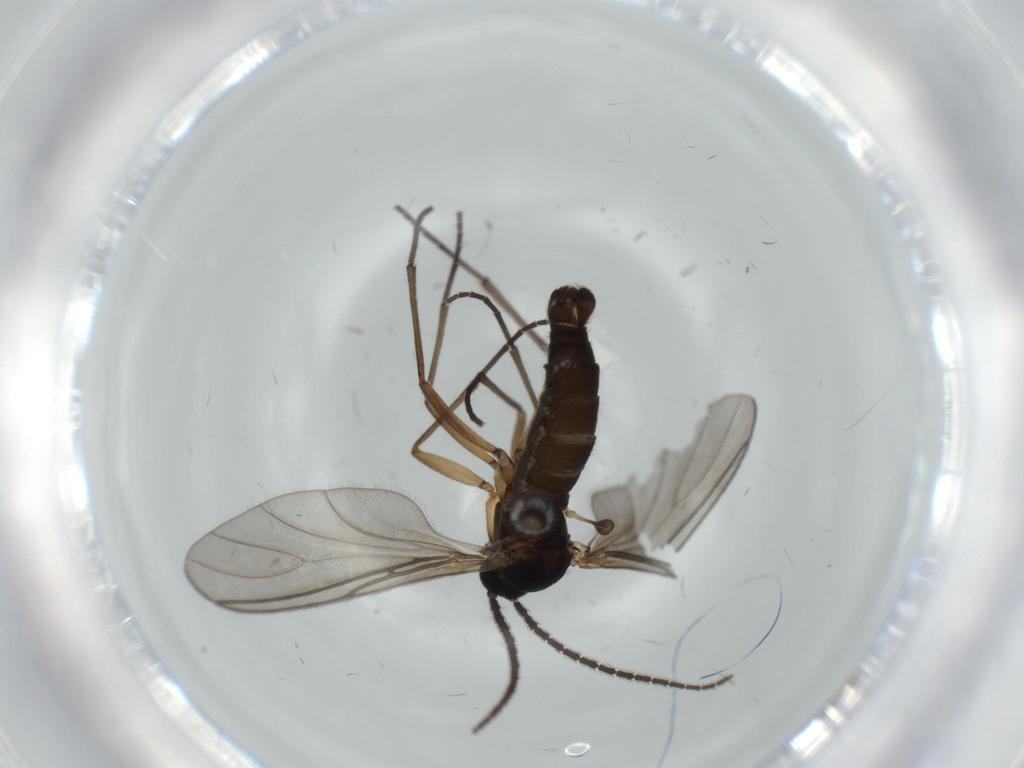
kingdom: Animalia
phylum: Arthropoda
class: Insecta
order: Diptera
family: Sciaridae
